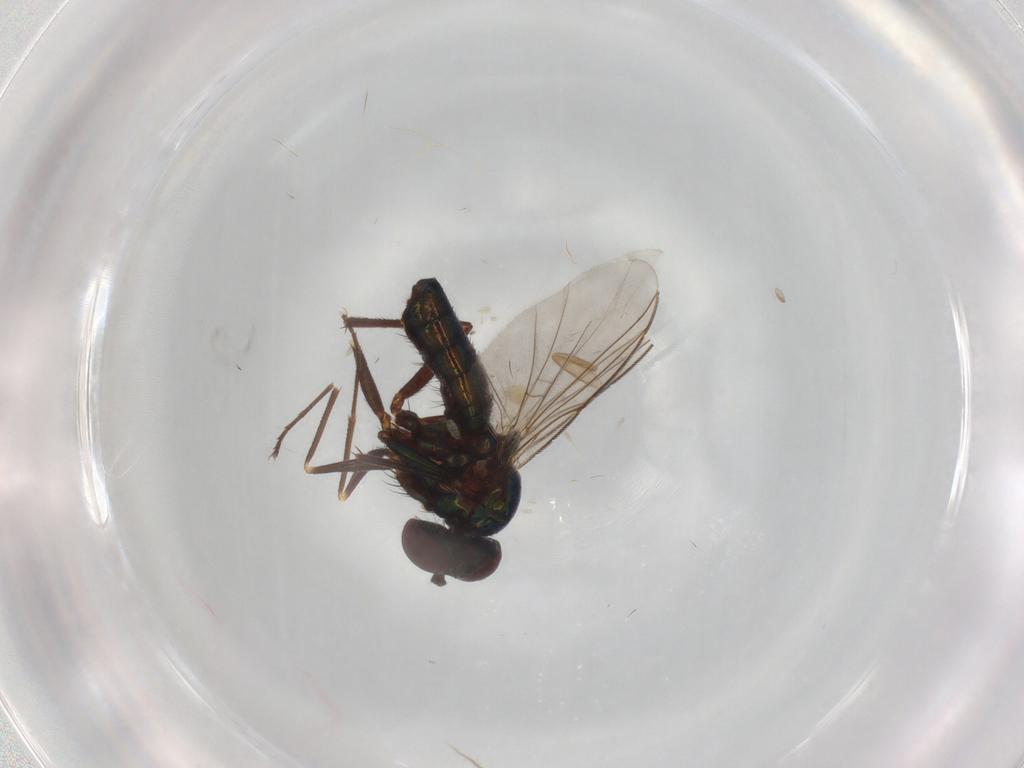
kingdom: Animalia
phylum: Arthropoda
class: Insecta
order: Diptera
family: Dolichopodidae
